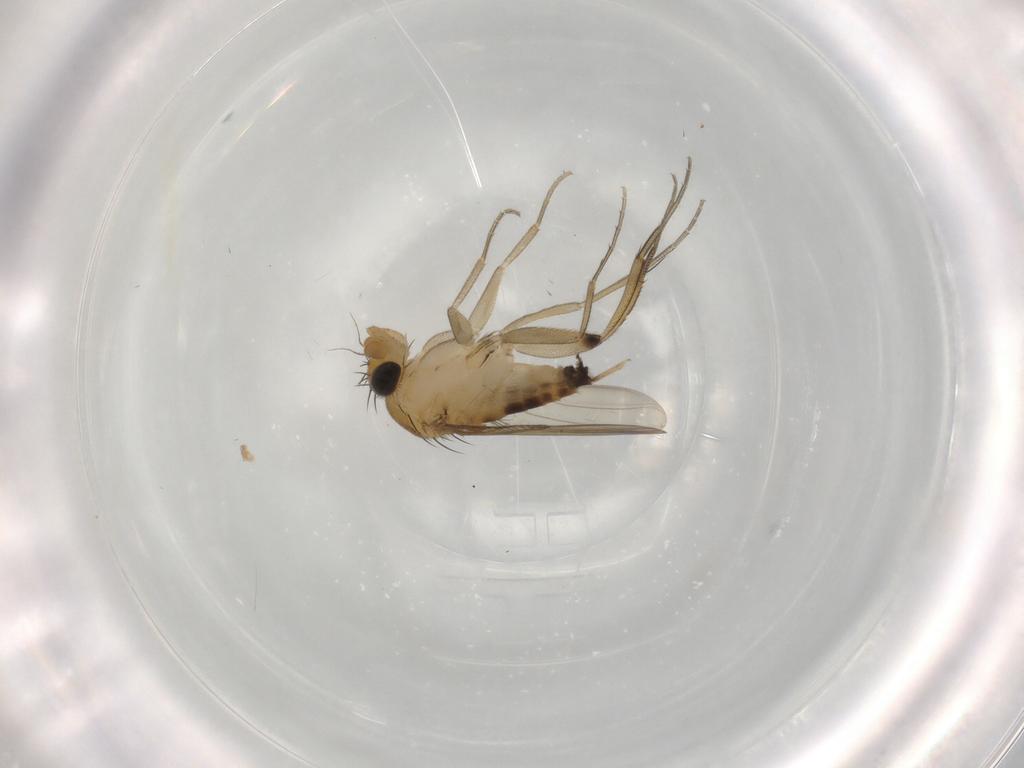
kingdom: Animalia
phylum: Arthropoda
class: Insecta
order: Diptera
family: Phoridae
